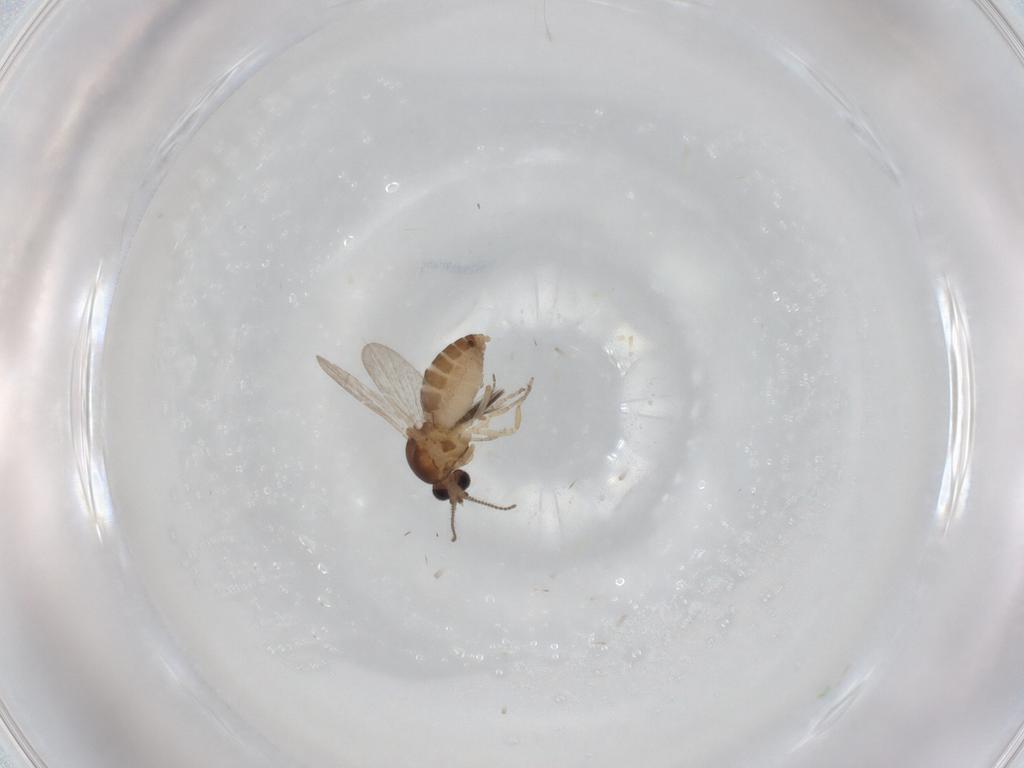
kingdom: Animalia
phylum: Arthropoda
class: Insecta
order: Diptera
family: Ceratopogonidae
